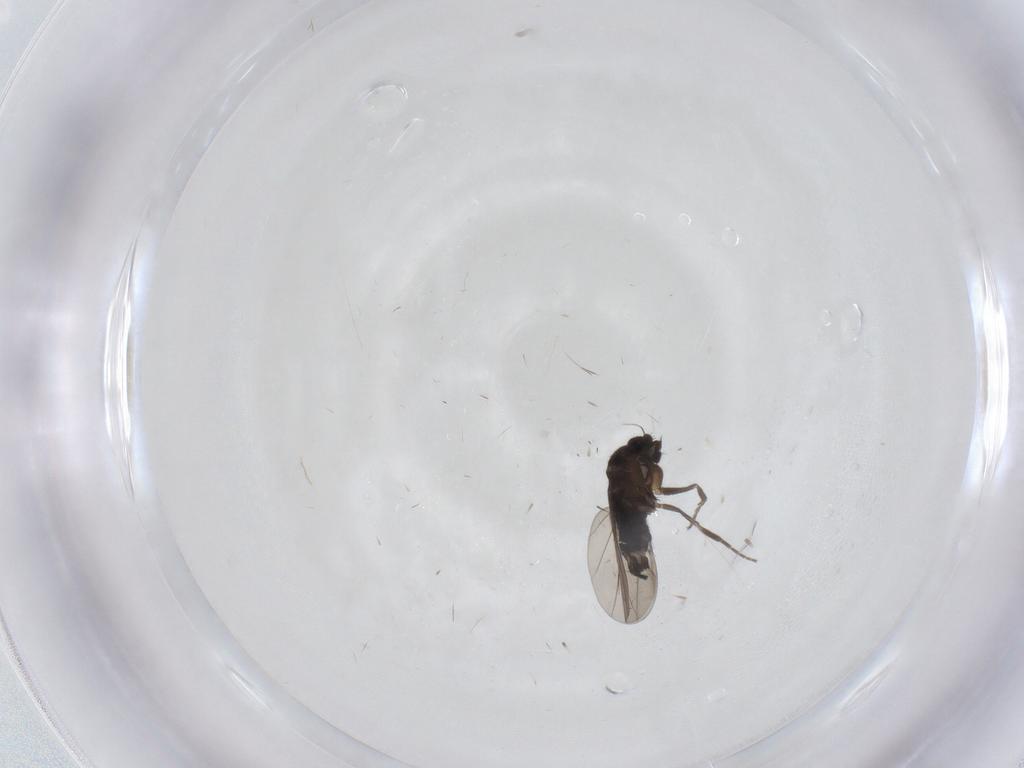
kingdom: Animalia
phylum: Arthropoda
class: Insecta
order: Diptera
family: Phoridae
